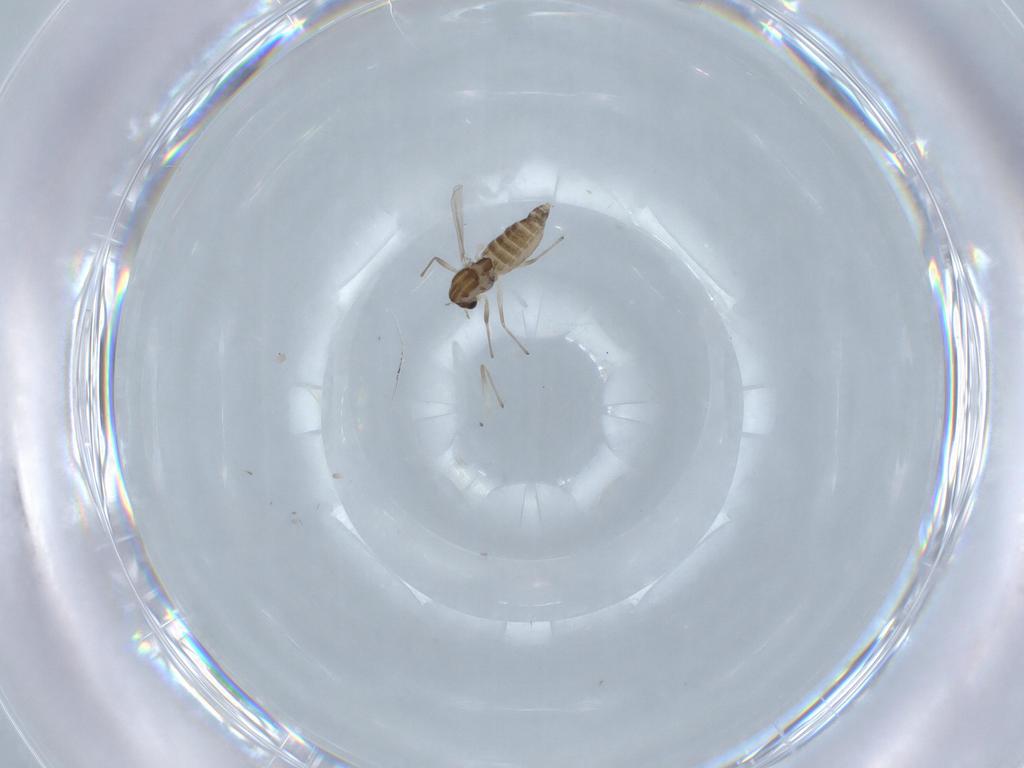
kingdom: Animalia
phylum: Arthropoda
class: Insecta
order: Diptera
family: Chironomidae
